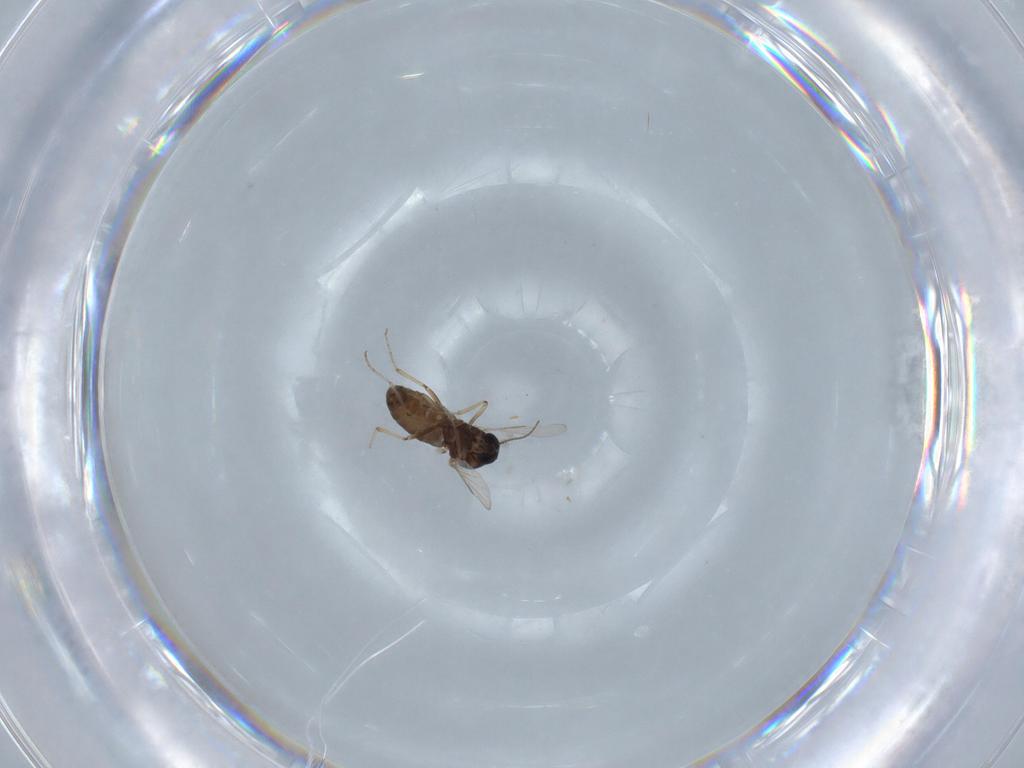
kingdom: Animalia
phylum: Arthropoda
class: Insecta
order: Diptera
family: Ceratopogonidae
